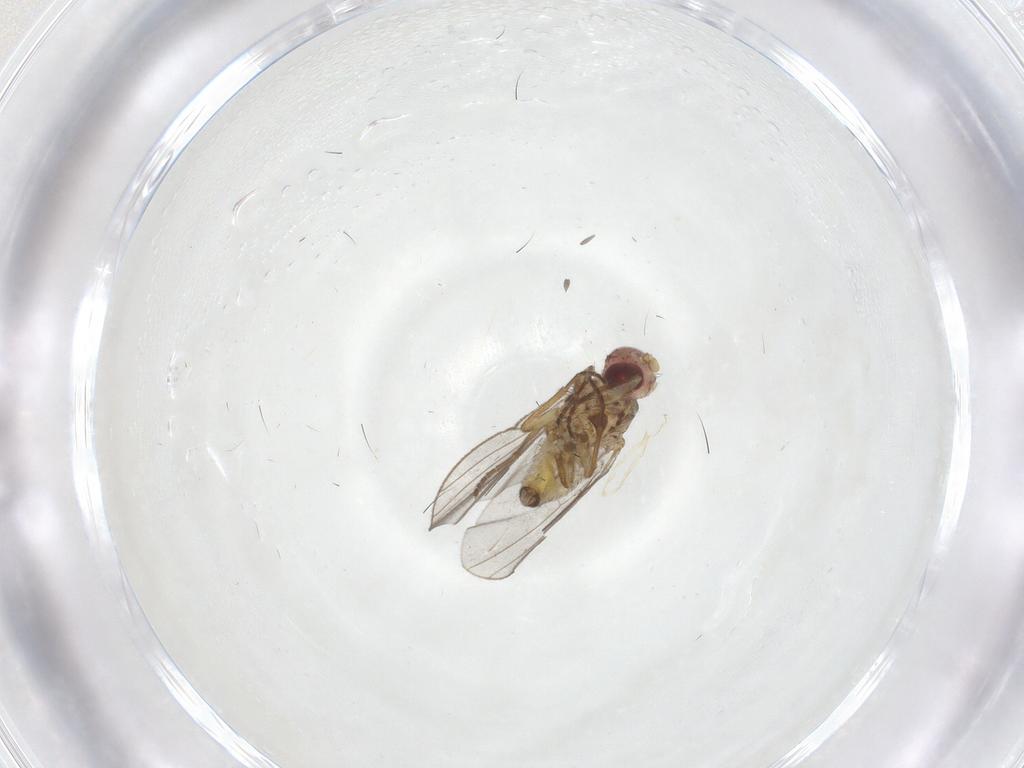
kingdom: Animalia
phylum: Arthropoda
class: Insecta
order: Diptera
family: Agromyzidae
